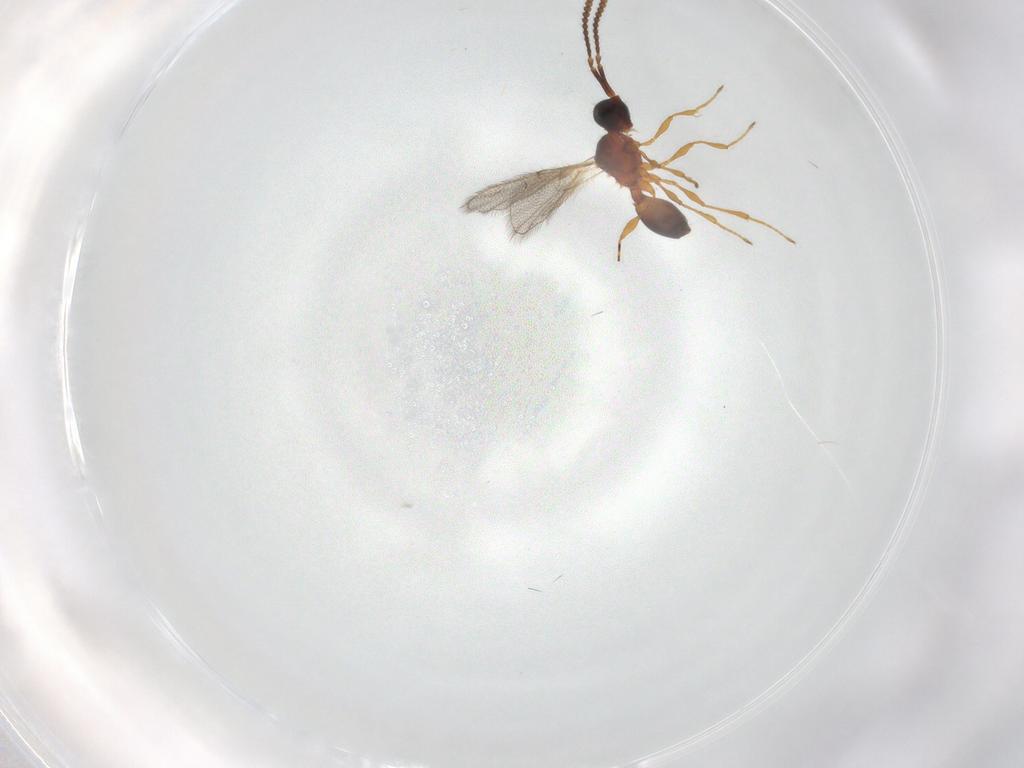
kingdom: Animalia
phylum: Arthropoda
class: Insecta
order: Hymenoptera
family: Diapriidae
